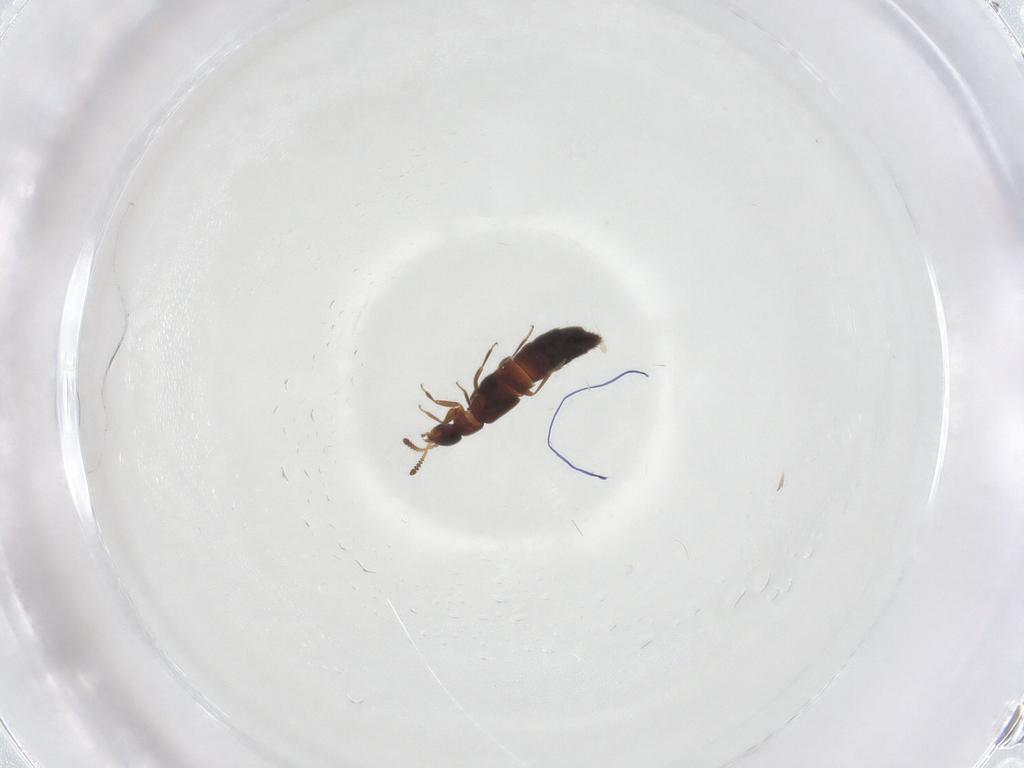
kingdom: Animalia
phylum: Arthropoda
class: Insecta
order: Coleoptera
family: Staphylinidae
